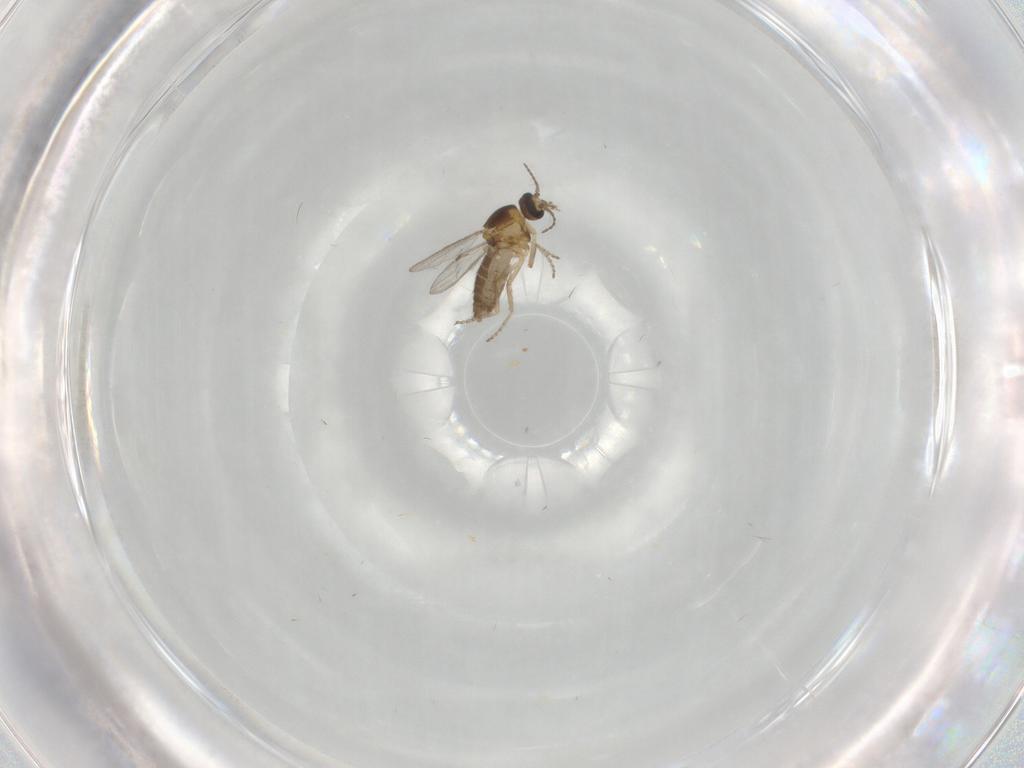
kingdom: Animalia
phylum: Arthropoda
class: Insecta
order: Diptera
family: Ceratopogonidae
